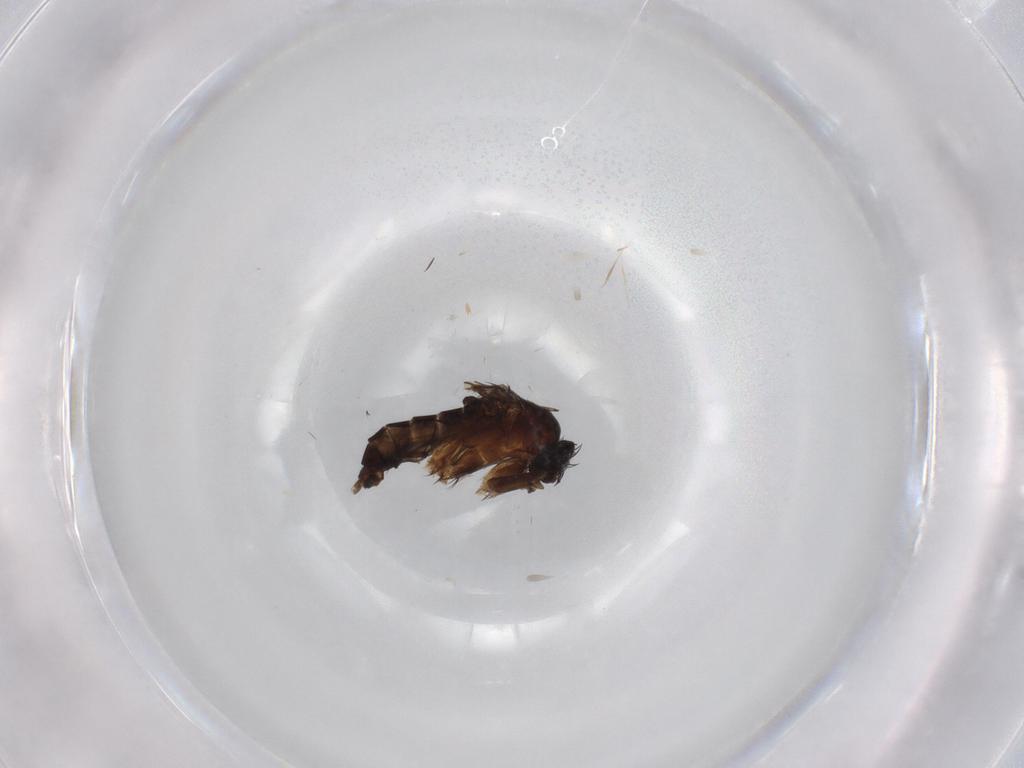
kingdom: Animalia
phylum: Arthropoda
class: Insecta
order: Diptera
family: Phoridae
